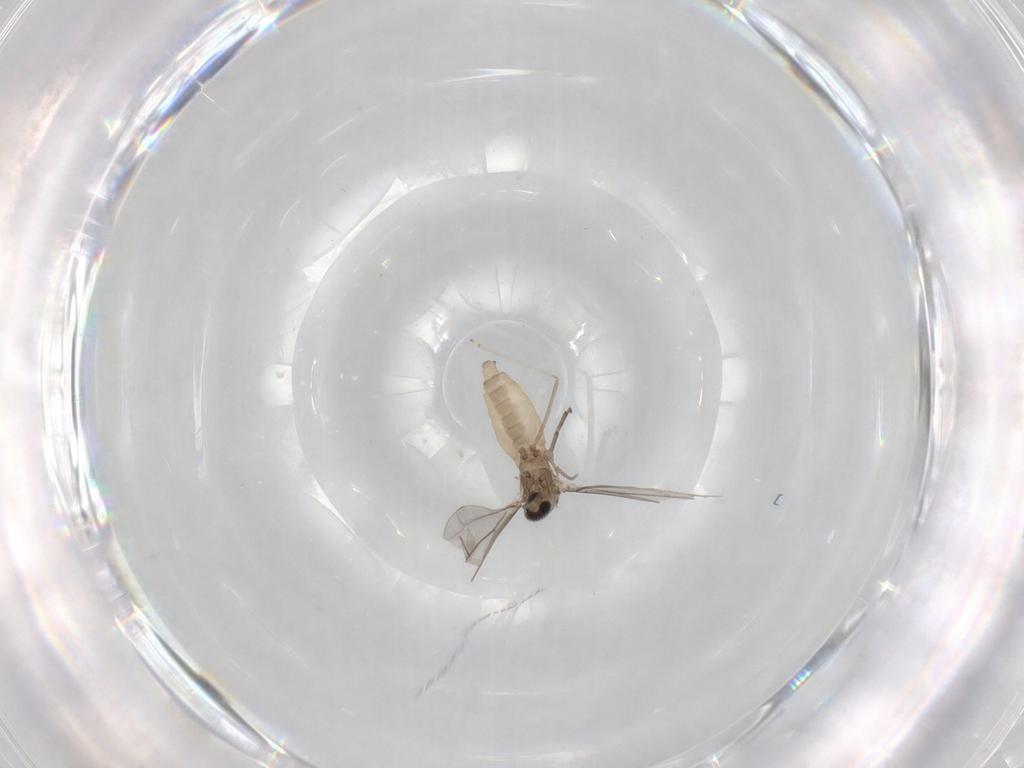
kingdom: Animalia
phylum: Arthropoda
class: Insecta
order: Diptera
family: Cecidomyiidae
